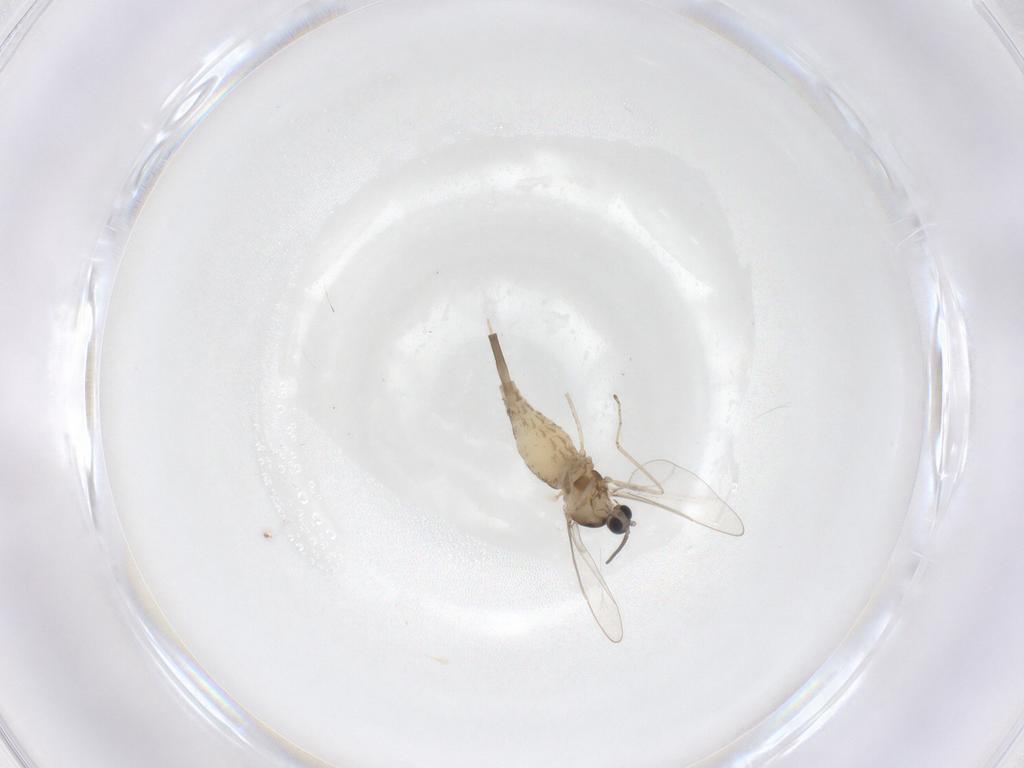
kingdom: Animalia
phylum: Arthropoda
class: Insecta
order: Diptera
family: Cecidomyiidae
